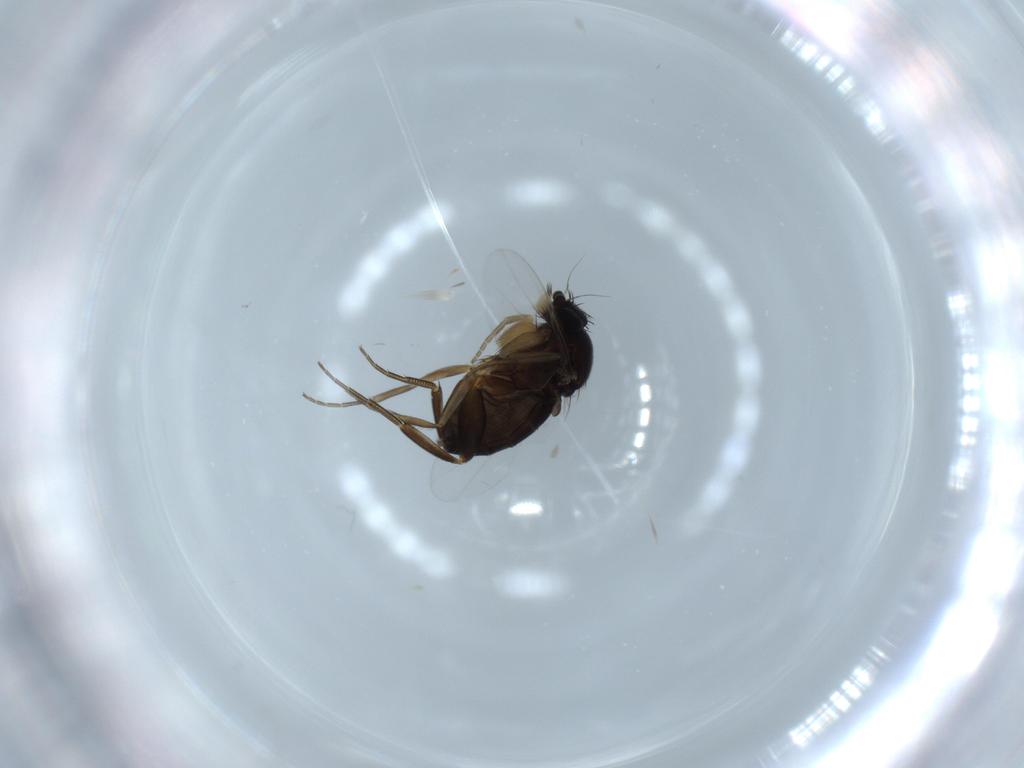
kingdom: Animalia
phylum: Arthropoda
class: Insecta
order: Diptera
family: Phoridae
